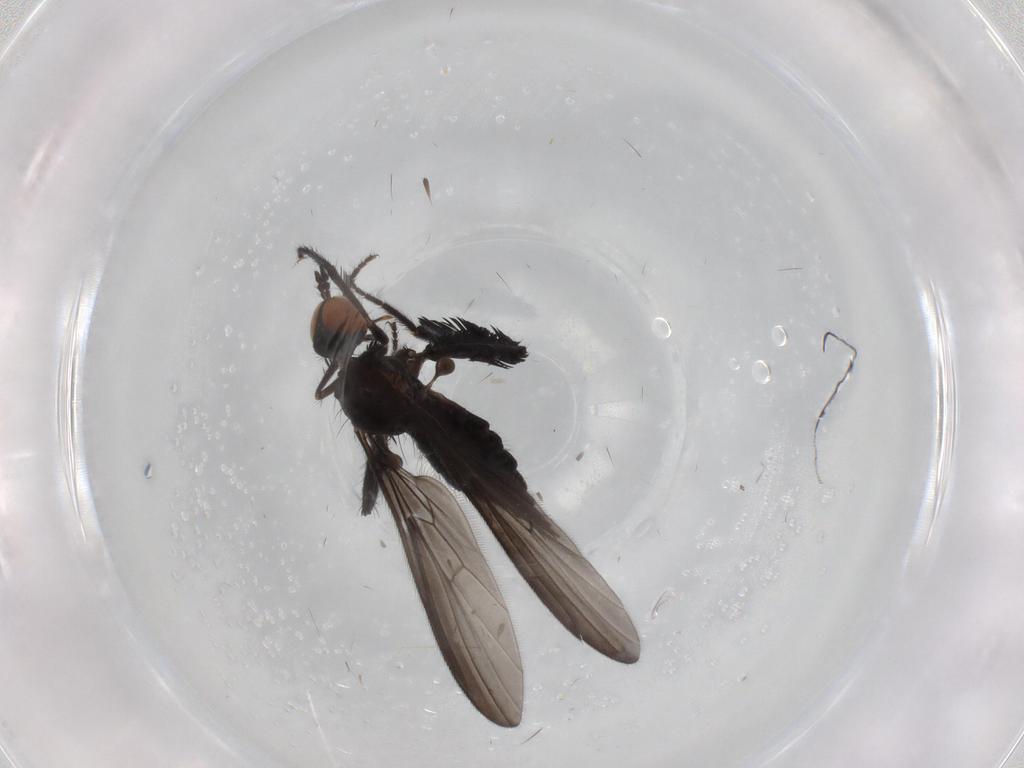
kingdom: Animalia
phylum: Arthropoda
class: Insecta
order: Diptera
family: Empididae
